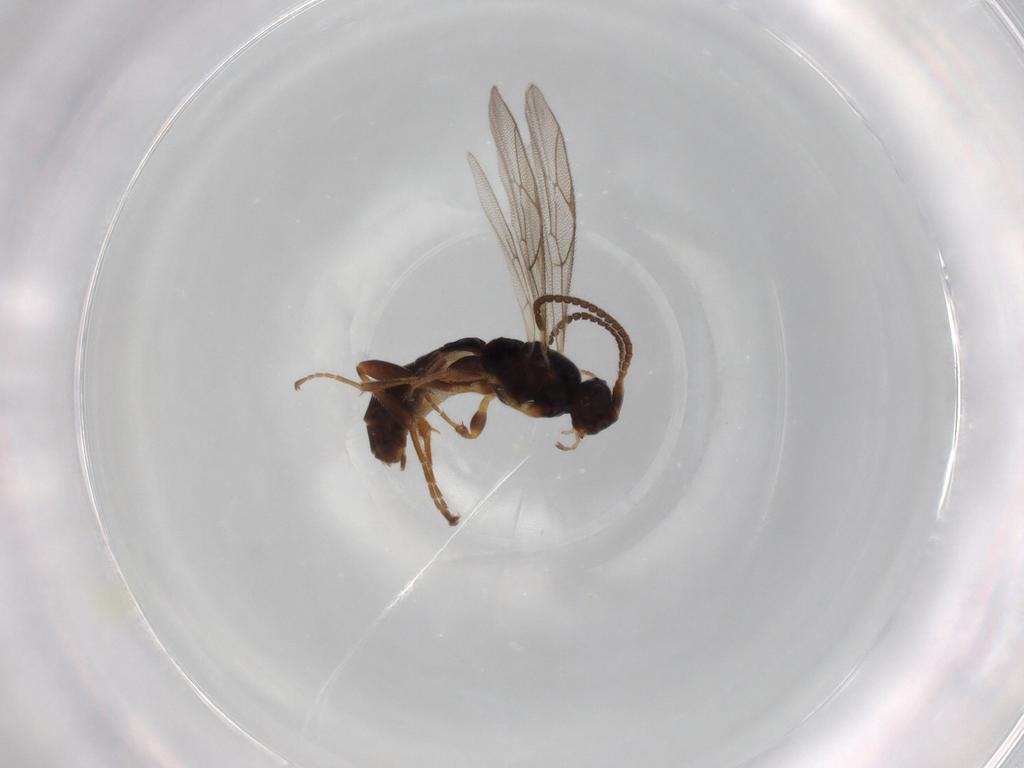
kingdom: Animalia
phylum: Arthropoda
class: Insecta
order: Hymenoptera
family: Ichneumonidae
